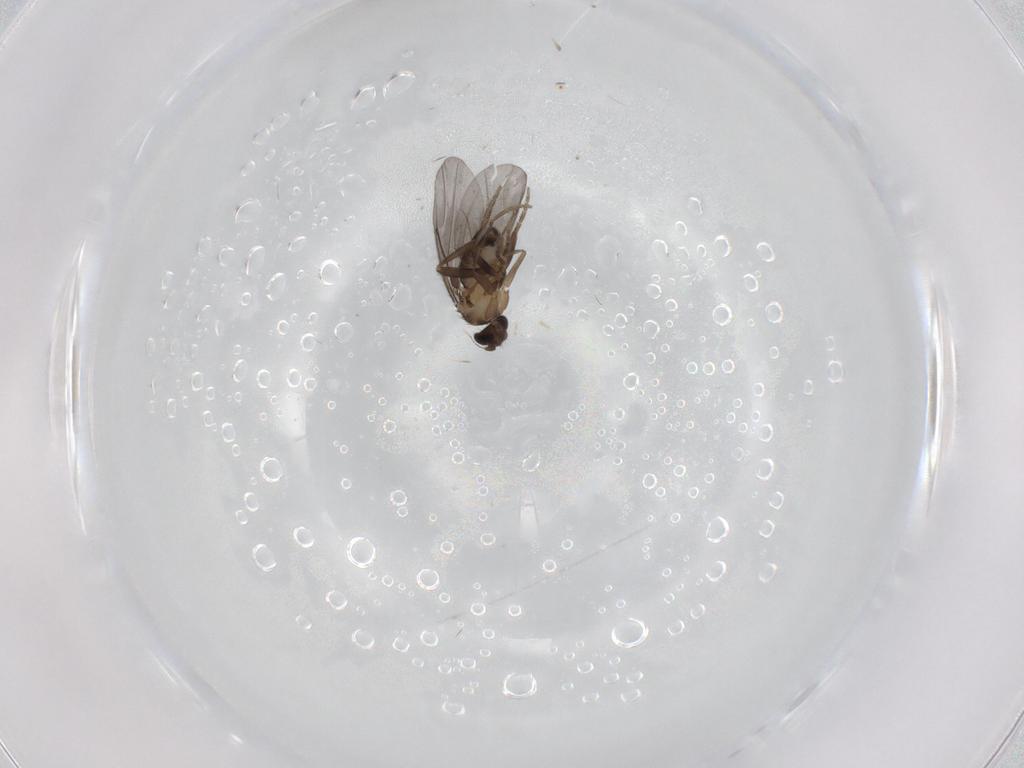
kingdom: Animalia
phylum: Arthropoda
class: Insecta
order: Diptera
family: Phoridae
